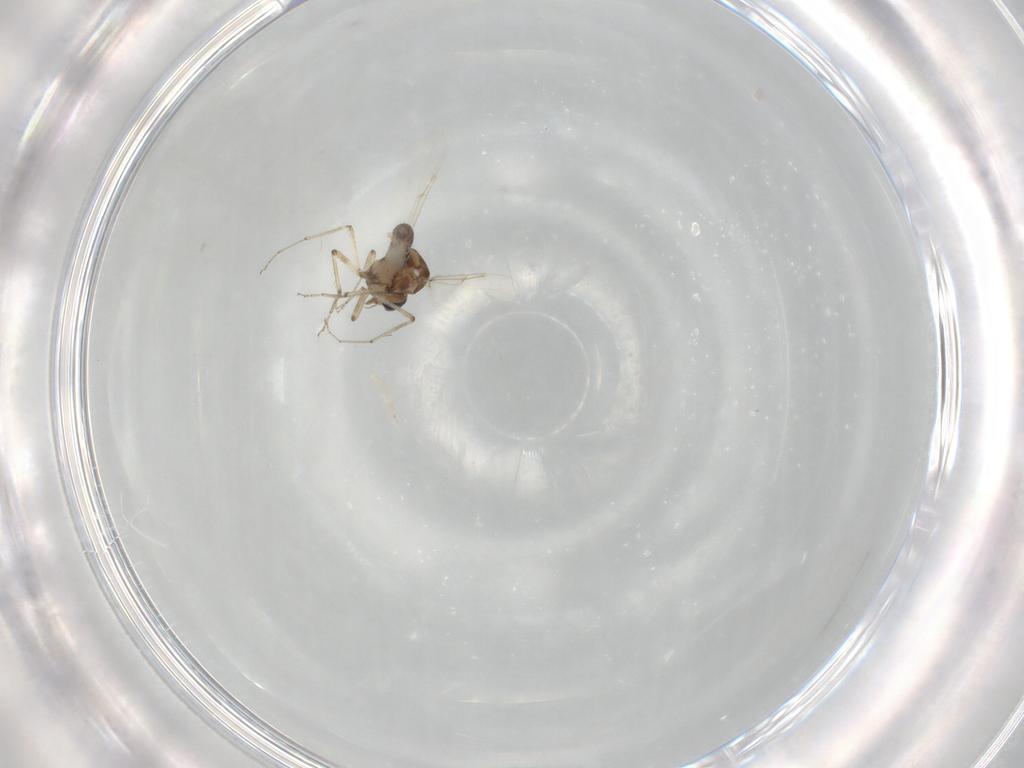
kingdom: Animalia
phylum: Arthropoda
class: Insecta
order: Diptera
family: Ceratopogonidae
